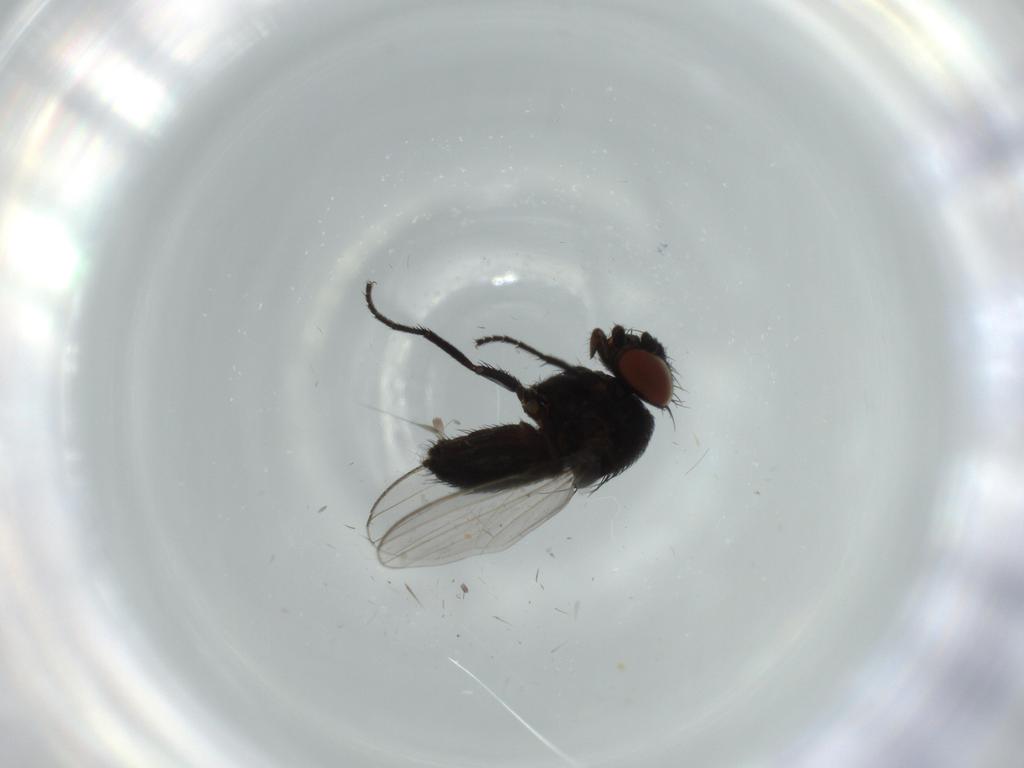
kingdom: Animalia
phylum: Arthropoda
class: Insecta
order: Diptera
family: Milichiidae
